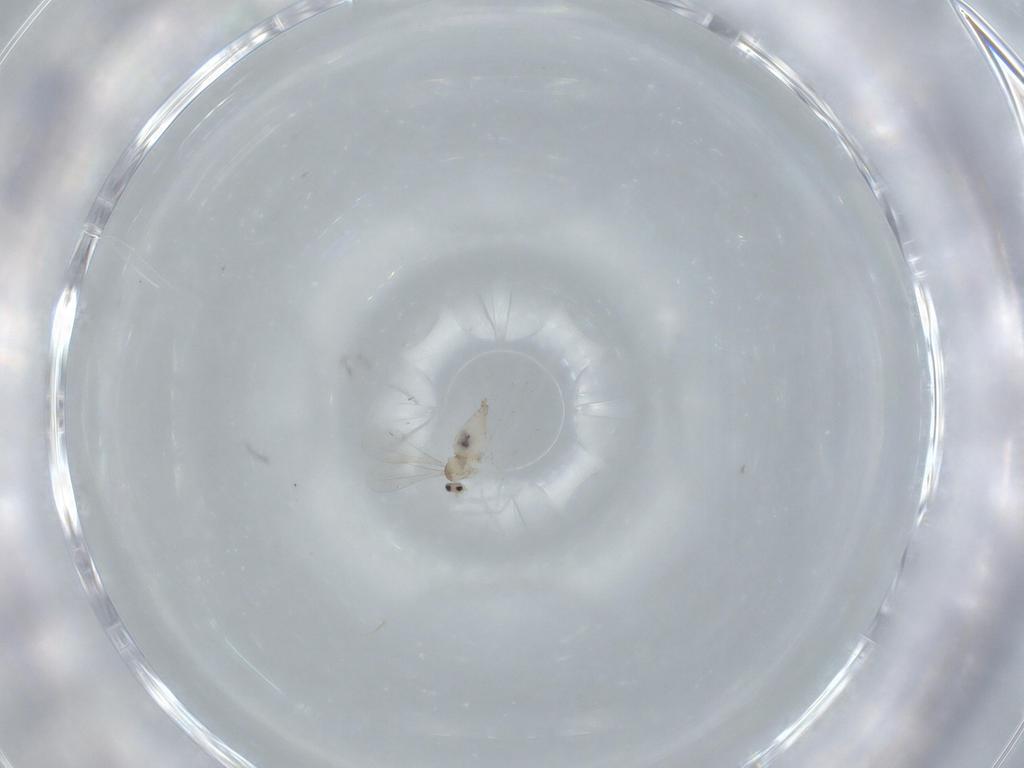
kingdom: Animalia
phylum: Arthropoda
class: Insecta
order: Diptera
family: Cecidomyiidae
